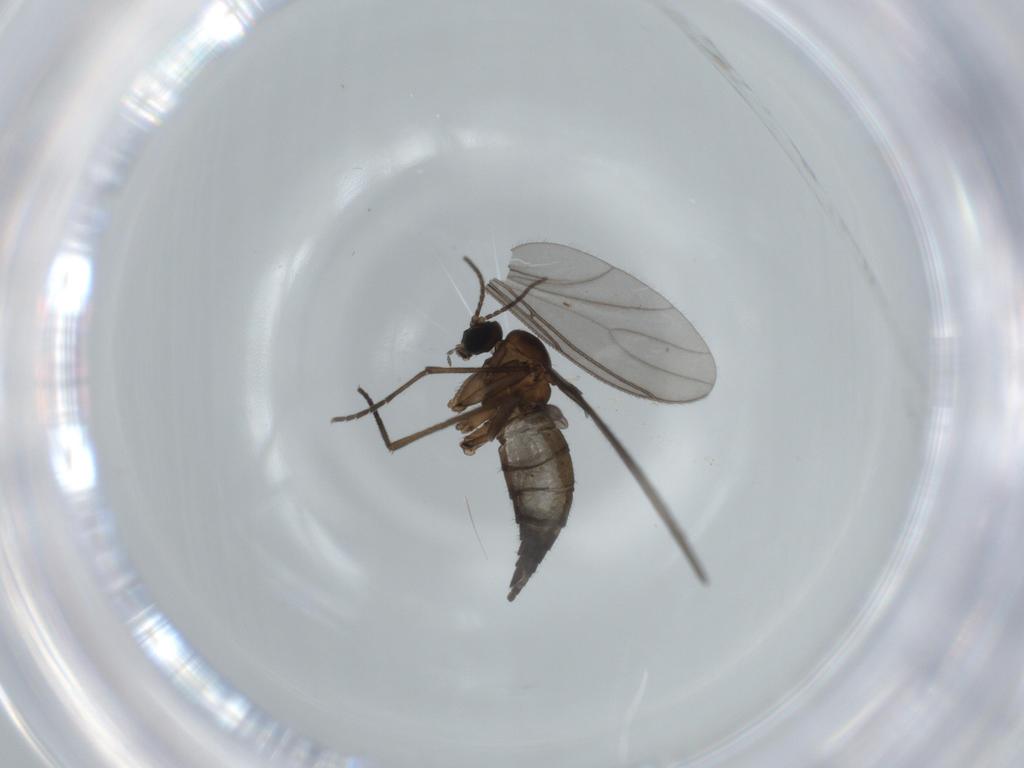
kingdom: Animalia
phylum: Arthropoda
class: Insecta
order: Diptera
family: Sciaridae
